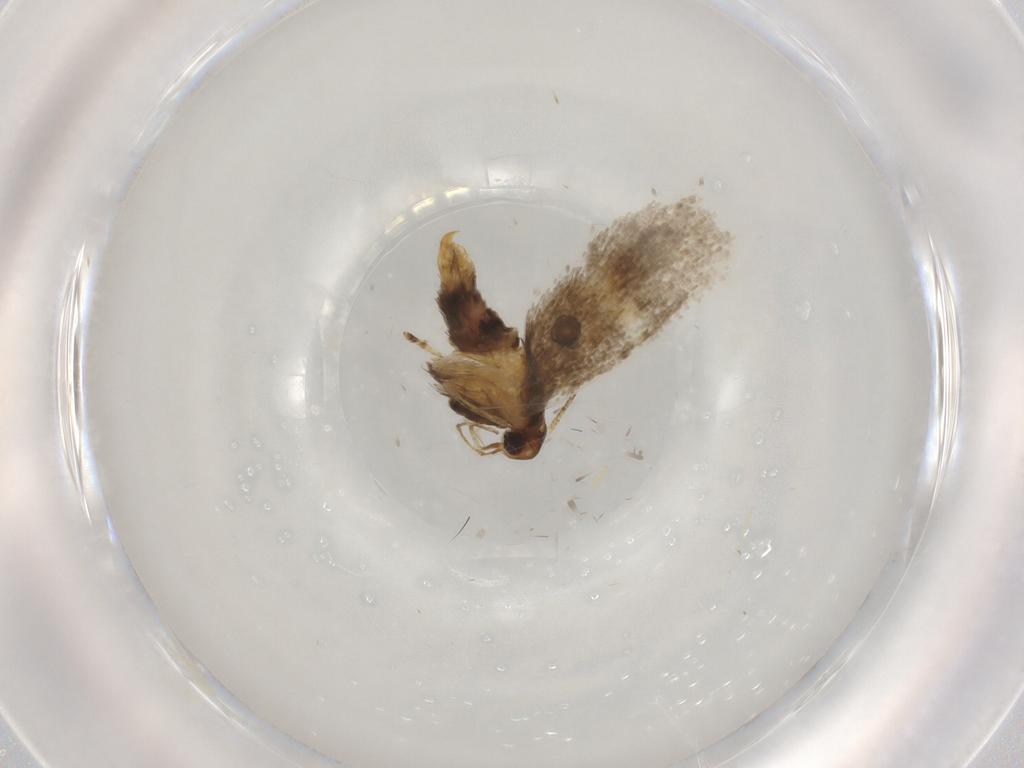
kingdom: Animalia
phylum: Arthropoda
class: Insecta
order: Lepidoptera
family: Oecophoridae
